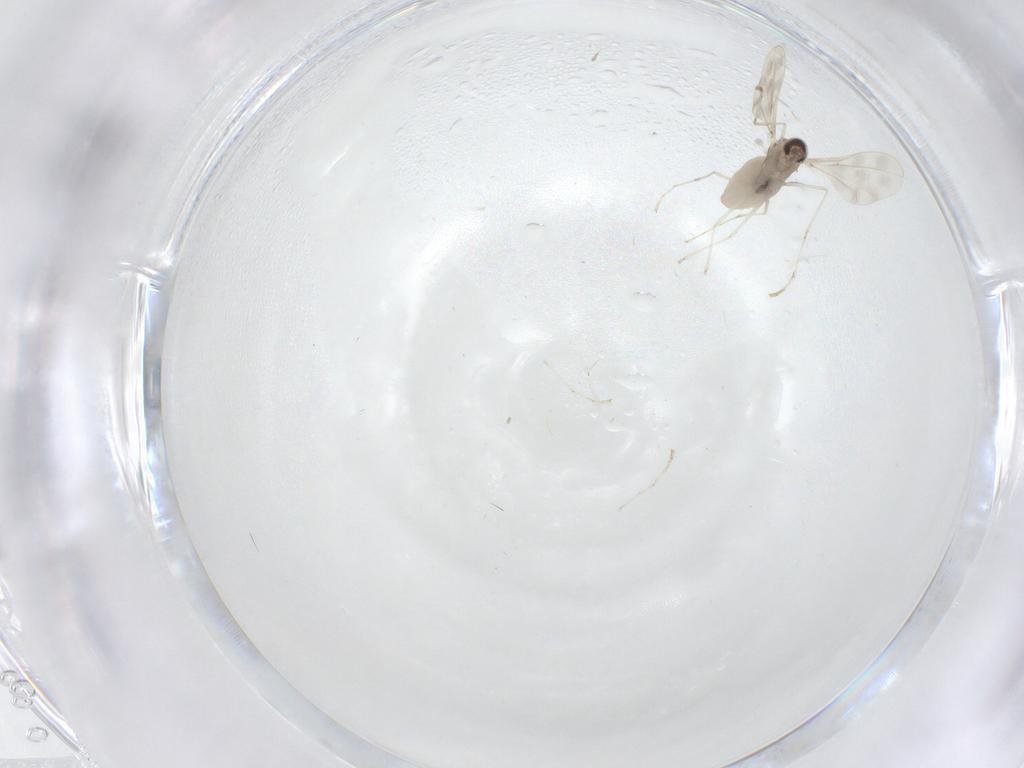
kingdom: Animalia
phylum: Arthropoda
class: Insecta
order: Diptera
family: Cecidomyiidae
